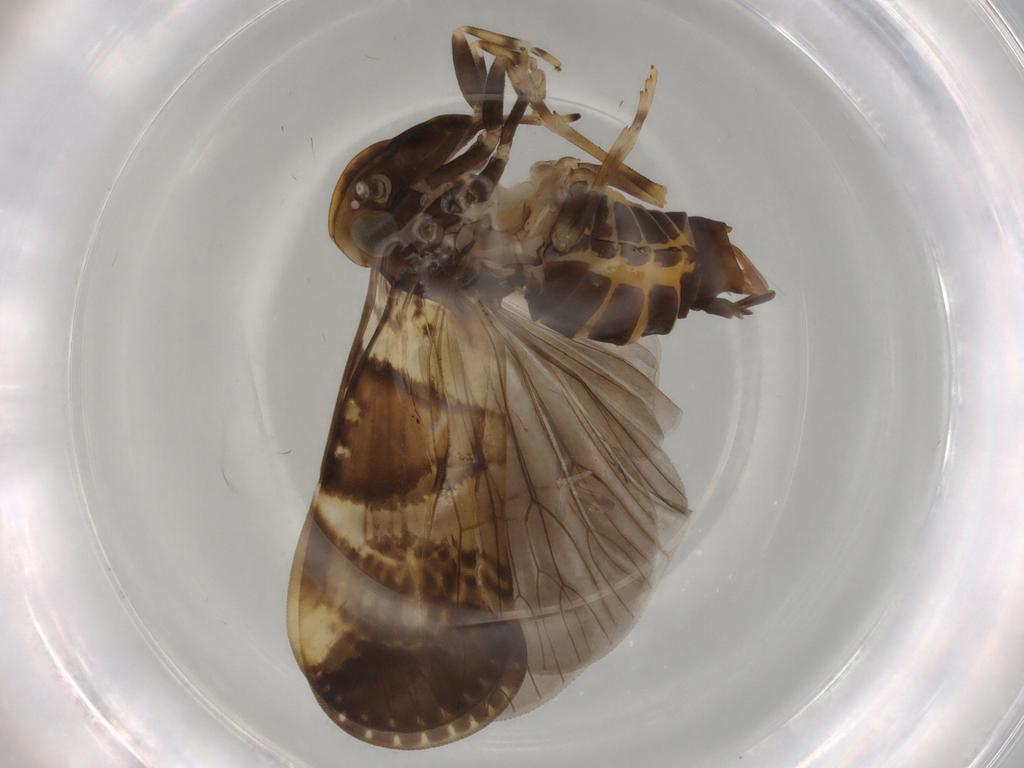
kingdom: Animalia
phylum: Arthropoda
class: Insecta
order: Hemiptera
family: Cixiidae
